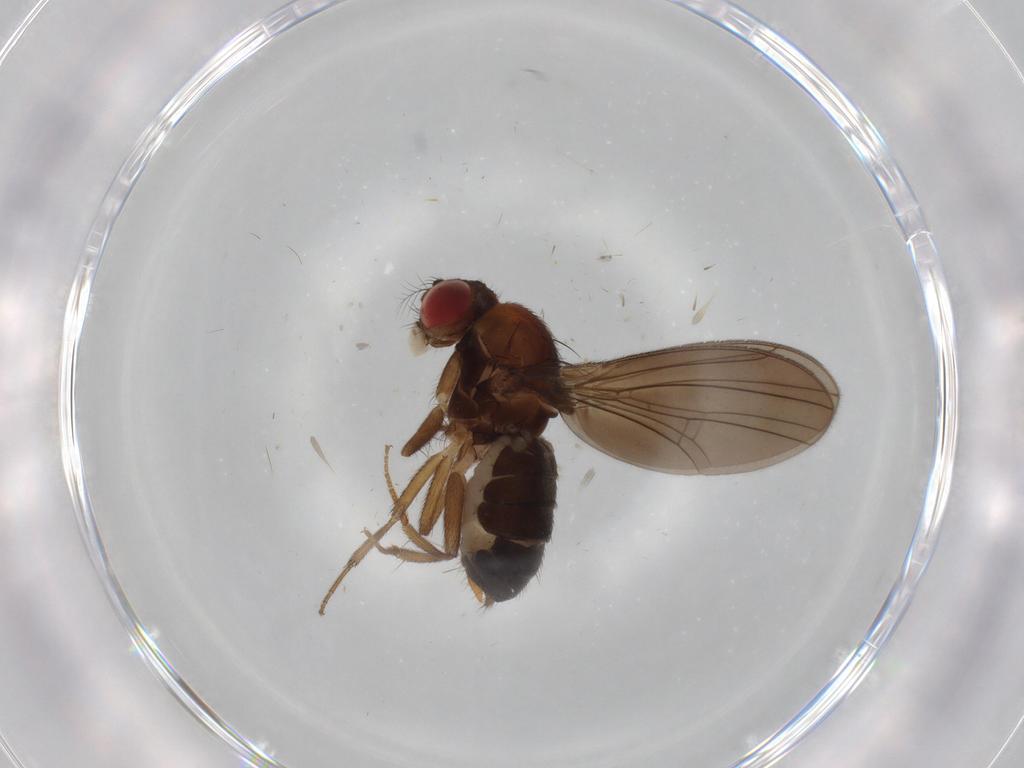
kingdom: Animalia
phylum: Arthropoda
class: Insecta
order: Diptera
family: Drosophilidae
